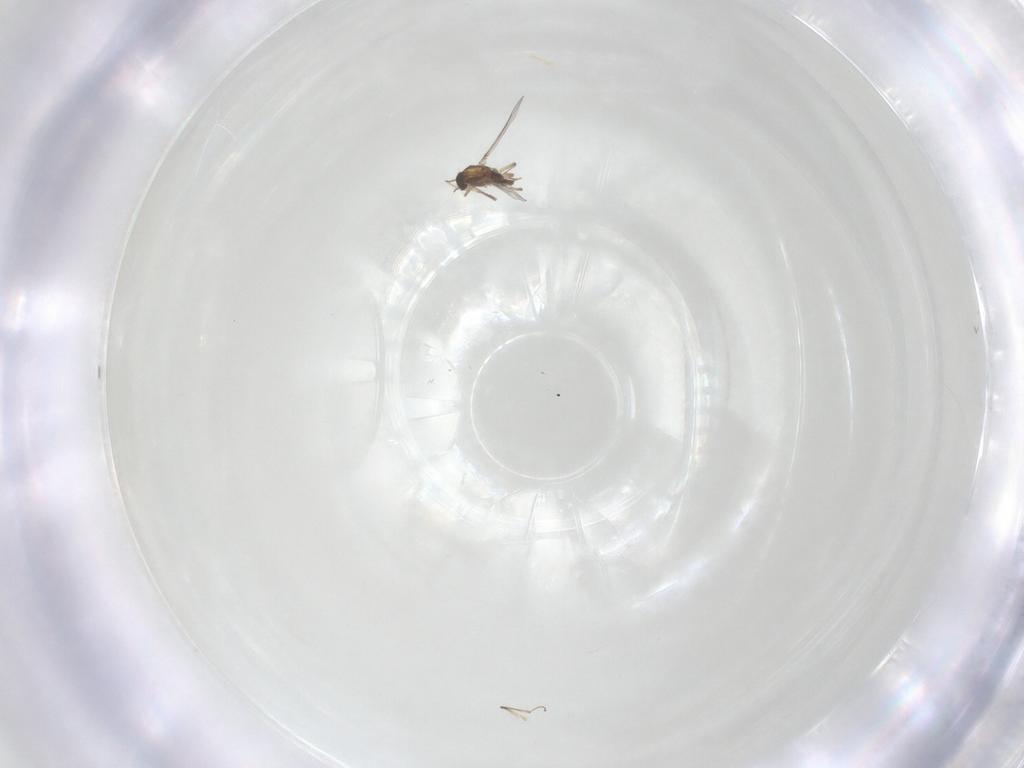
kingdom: Animalia
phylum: Arthropoda
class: Insecta
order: Diptera
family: Chironomidae
